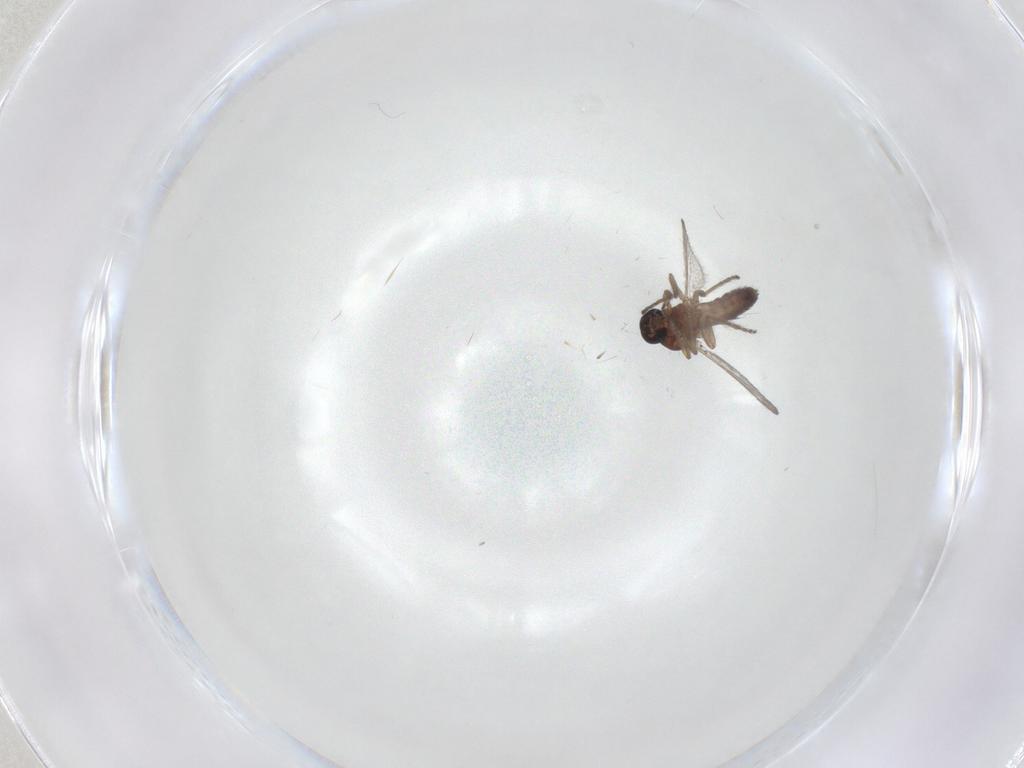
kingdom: Animalia
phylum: Arthropoda
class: Insecta
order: Diptera
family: Ceratopogonidae
